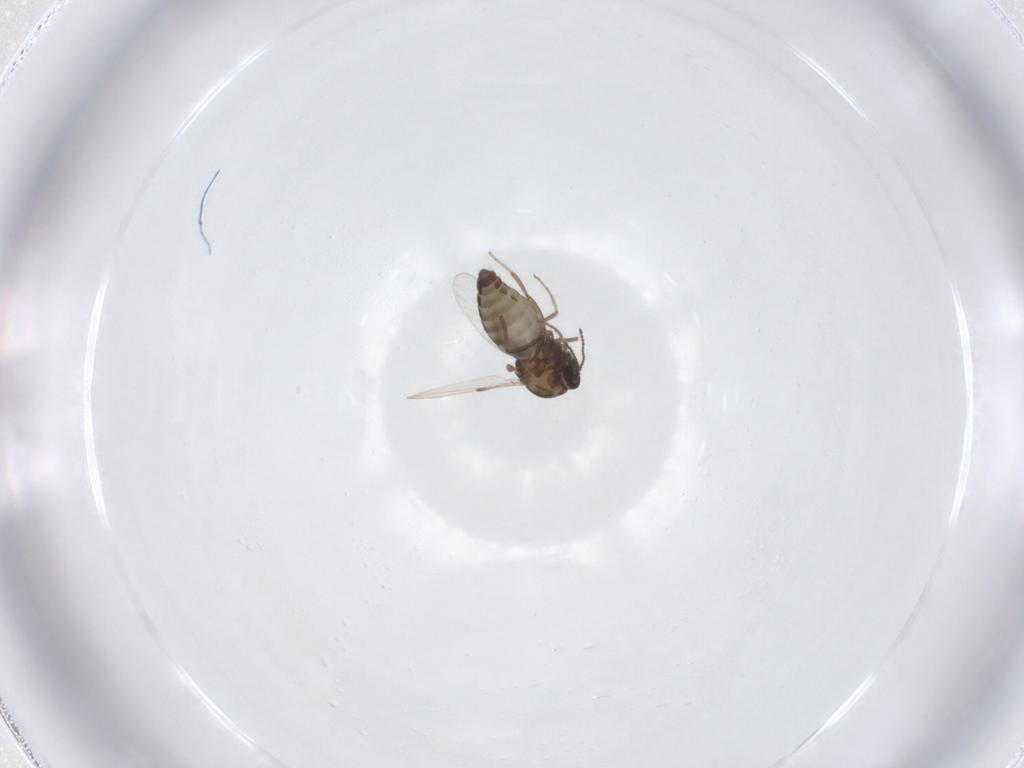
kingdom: Animalia
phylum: Arthropoda
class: Insecta
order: Diptera
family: Ceratopogonidae
